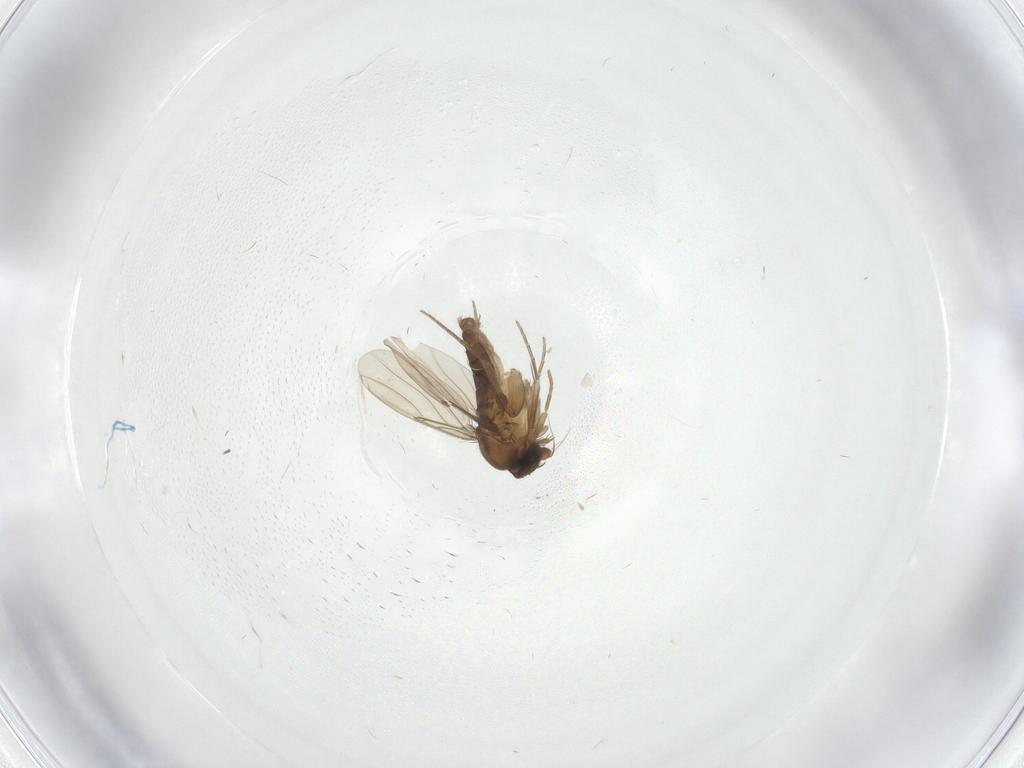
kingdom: Animalia
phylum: Arthropoda
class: Insecta
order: Diptera
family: Phoridae
